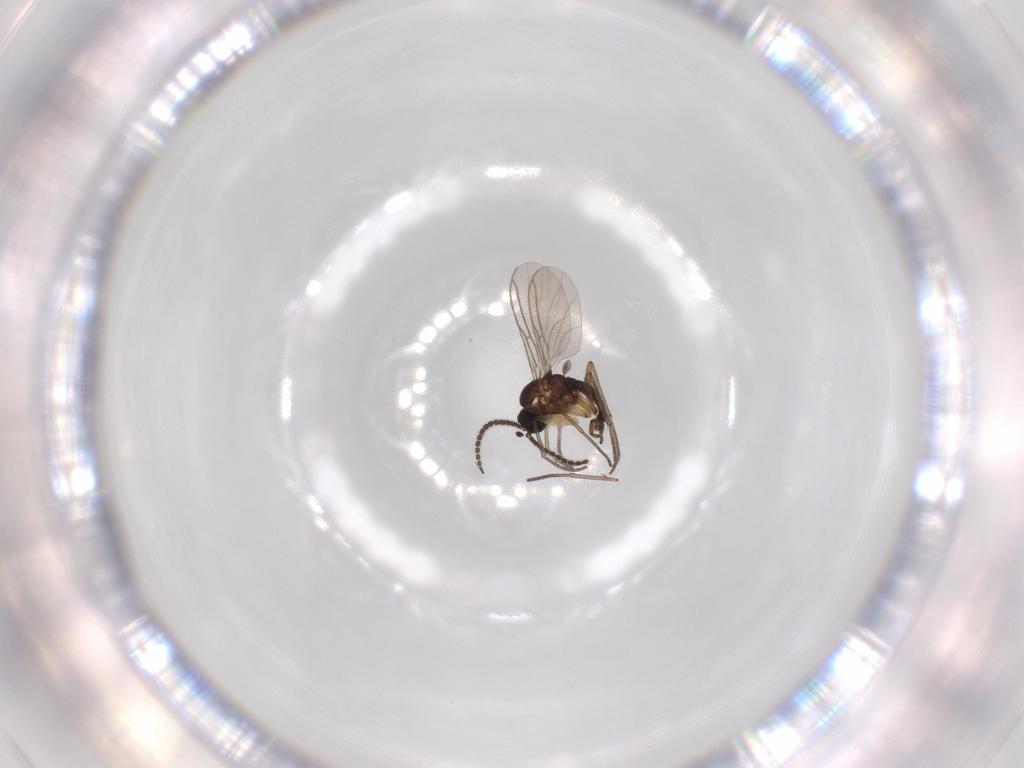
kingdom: Animalia
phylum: Arthropoda
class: Insecta
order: Diptera
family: Sciaridae
